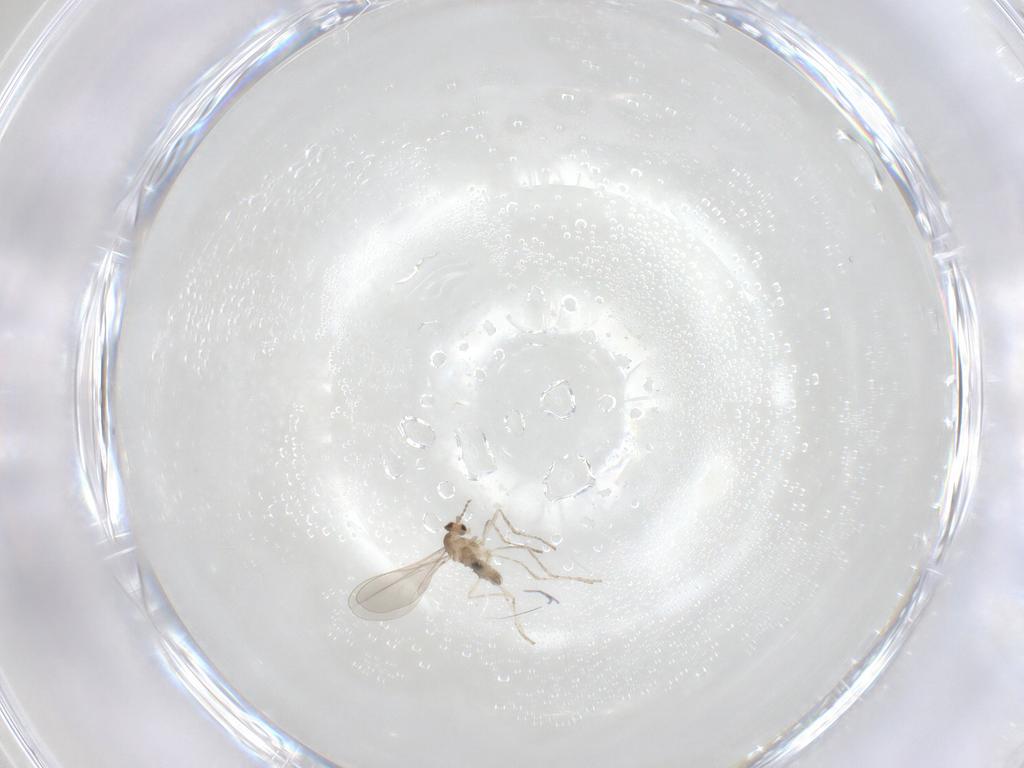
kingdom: Animalia
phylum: Arthropoda
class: Insecta
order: Diptera
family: Cecidomyiidae
